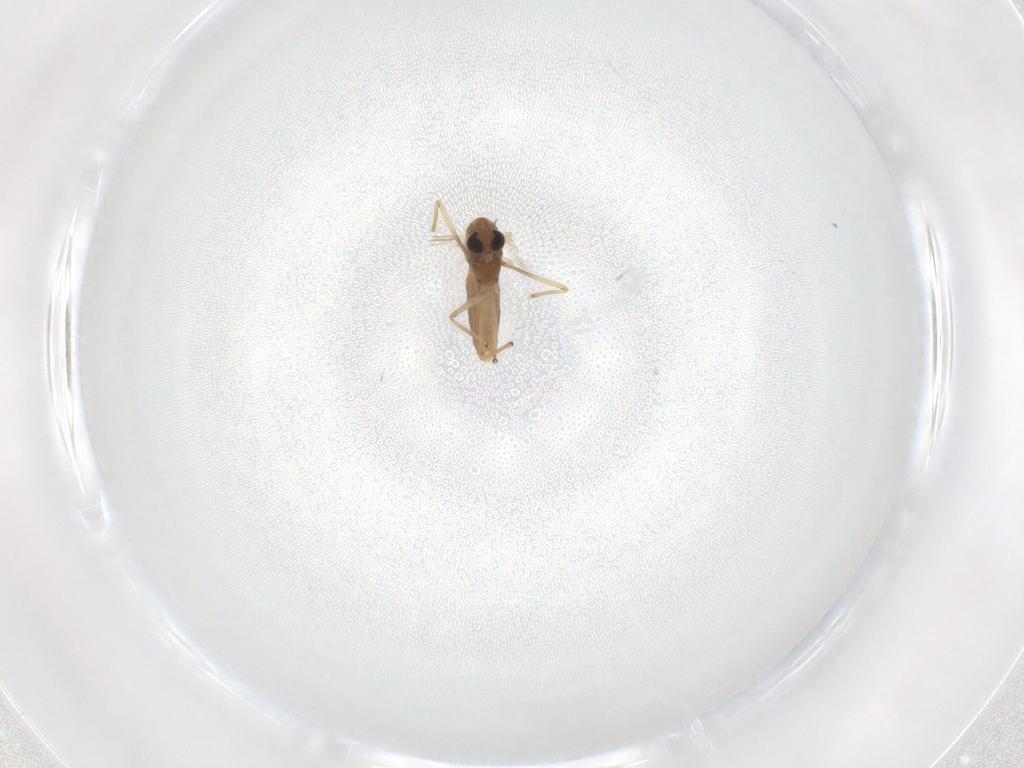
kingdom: Animalia
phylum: Arthropoda
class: Insecta
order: Diptera
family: Chironomidae
